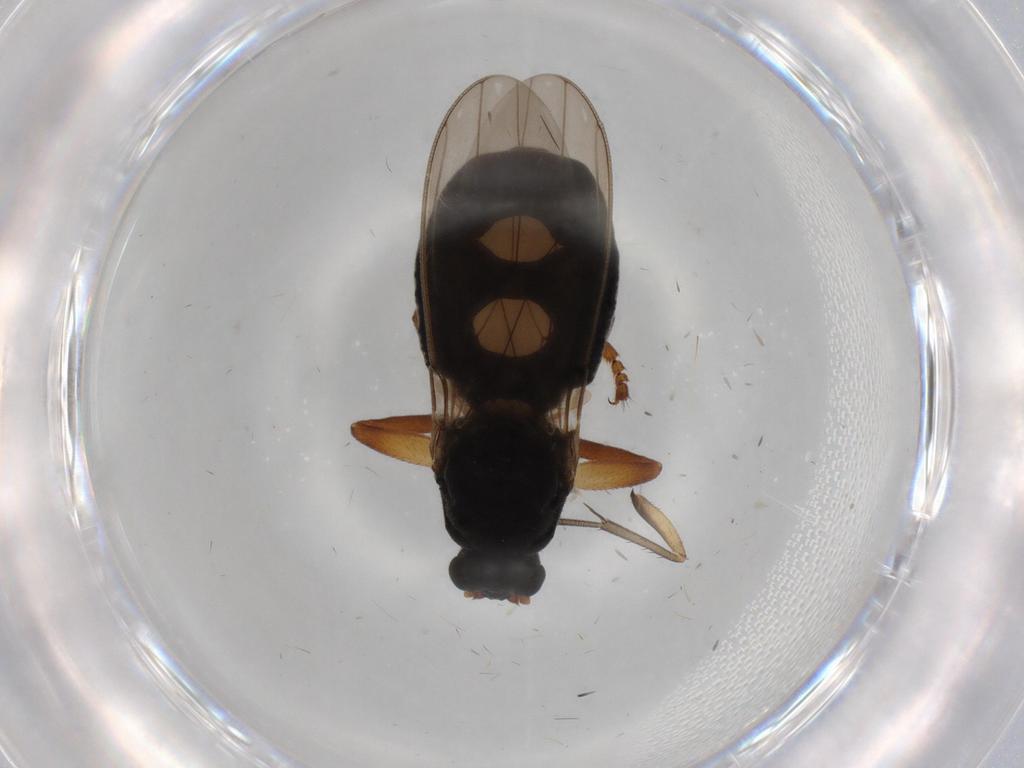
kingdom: Animalia
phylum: Arthropoda
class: Insecta
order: Diptera
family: Sphaeroceridae
